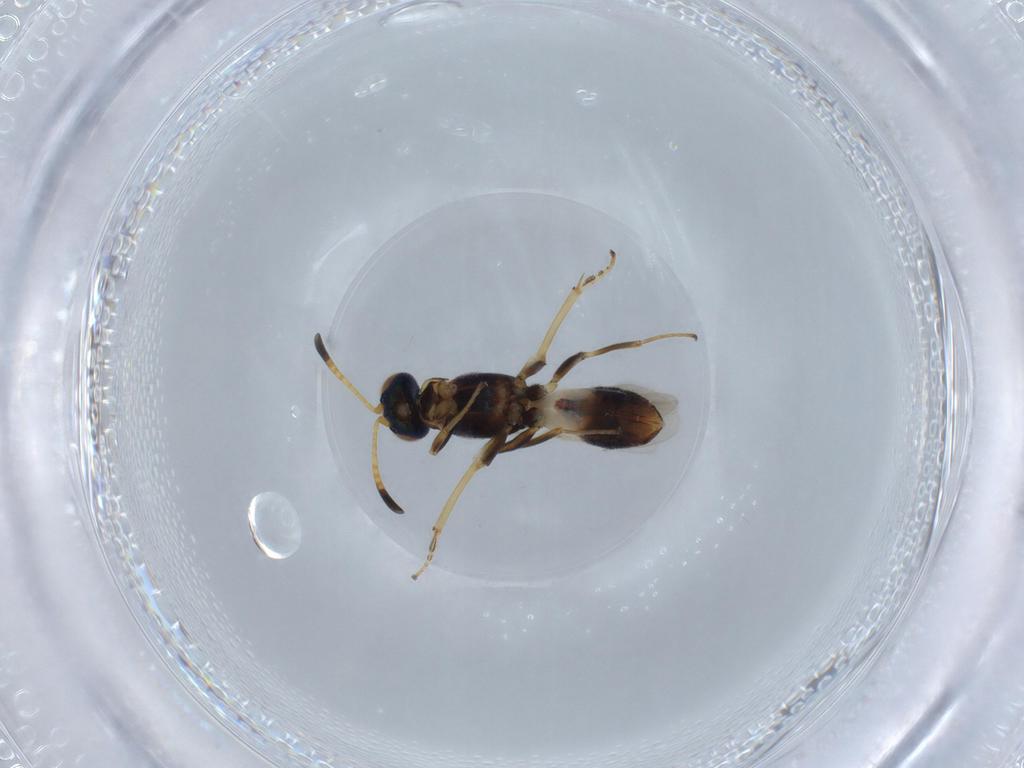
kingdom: Animalia
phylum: Arthropoda
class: Insecta
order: Hymenoptera
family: Eupelmidae
